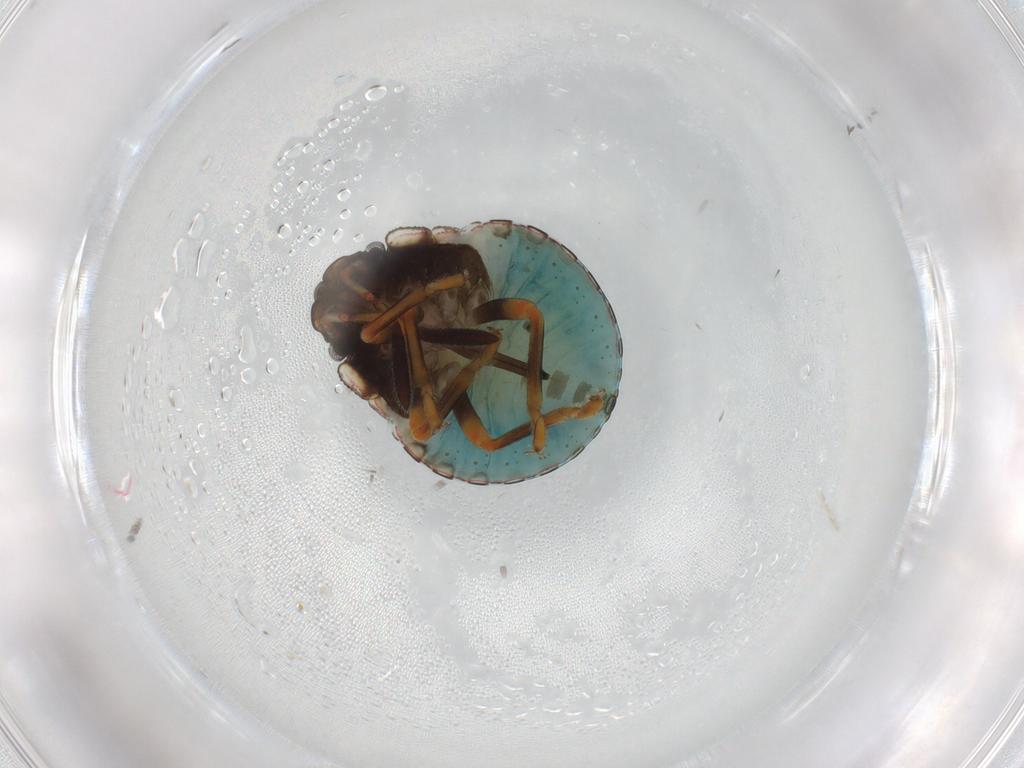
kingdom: Animalia
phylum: Arthropoda
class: Insecta
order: Hemiptera
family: Pentatomidae
